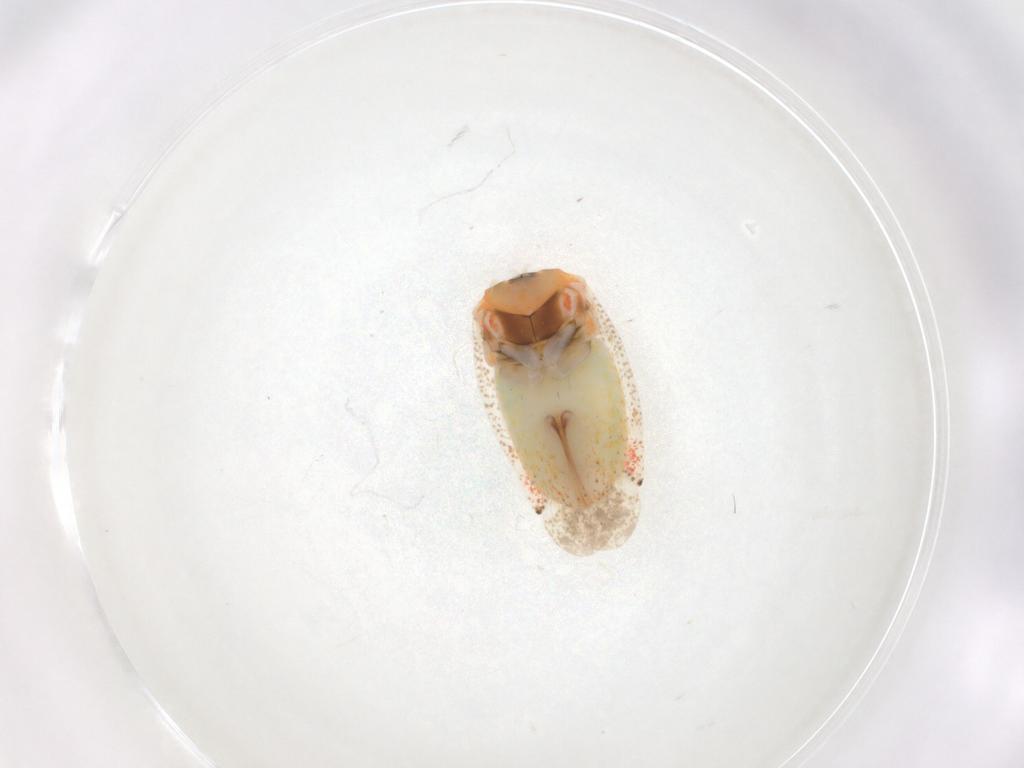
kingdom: Animalia
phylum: Arthropoda
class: Insecta
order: Hemiptera
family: Miridae
